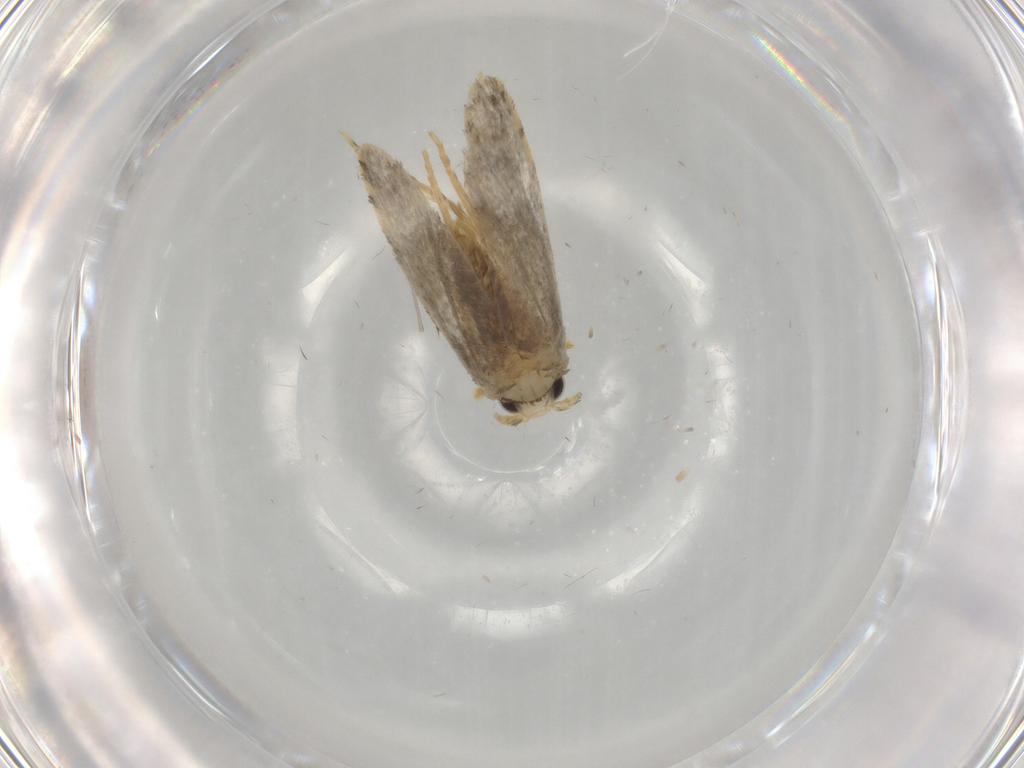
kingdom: Animalia
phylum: Arthropoda
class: Insecta
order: Lepidoptera
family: Psychidae
